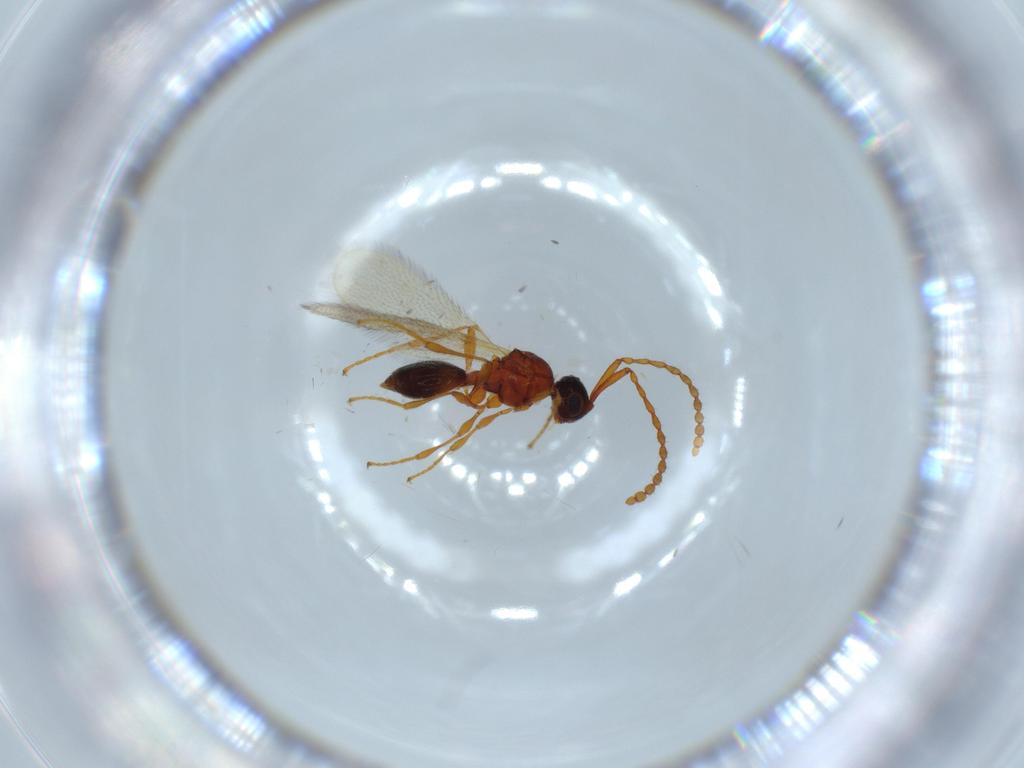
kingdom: Animalia
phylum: Arthropoda
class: Insecta
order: Hymenoptera
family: Diapriidae
